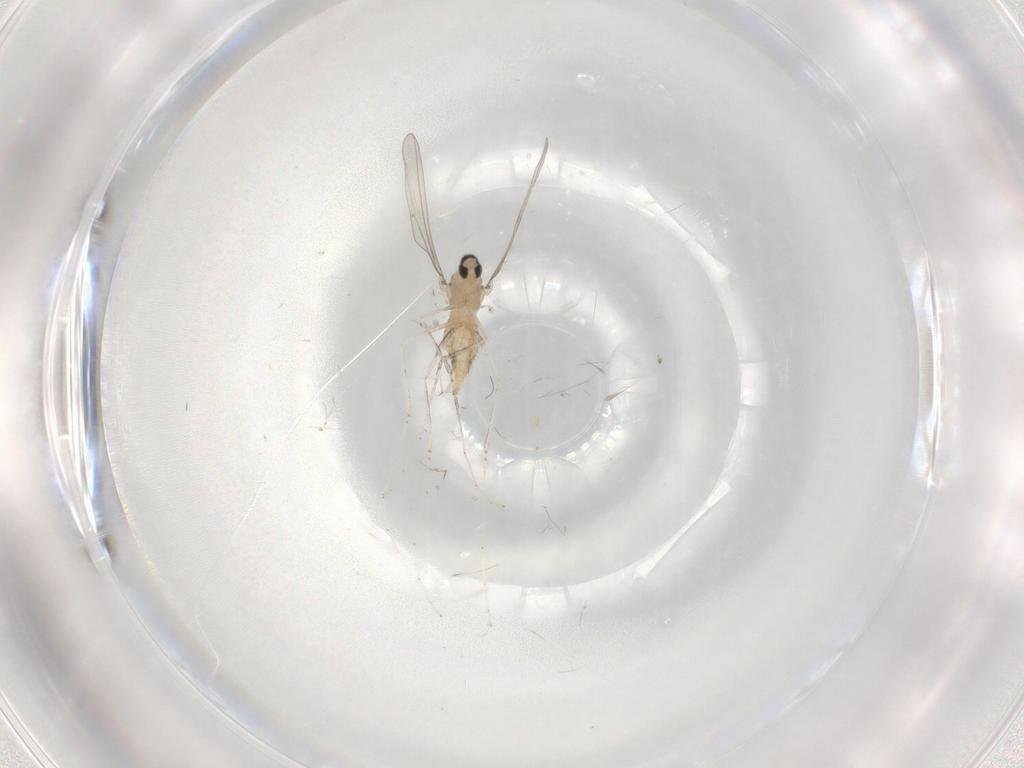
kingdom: Animalia
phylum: Arthropoda
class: Insecta
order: Diptera
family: Cecidomyiidae
